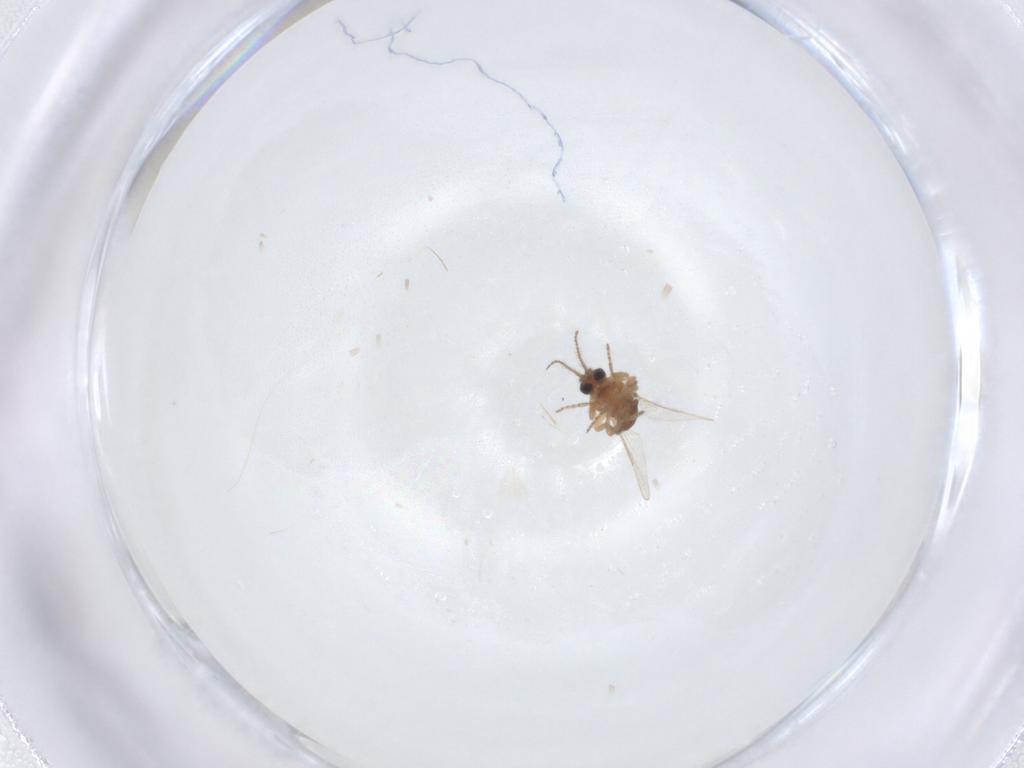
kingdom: Animalia
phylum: Arthropoda
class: Insecta
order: Diptera
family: Ceratopogonidae
